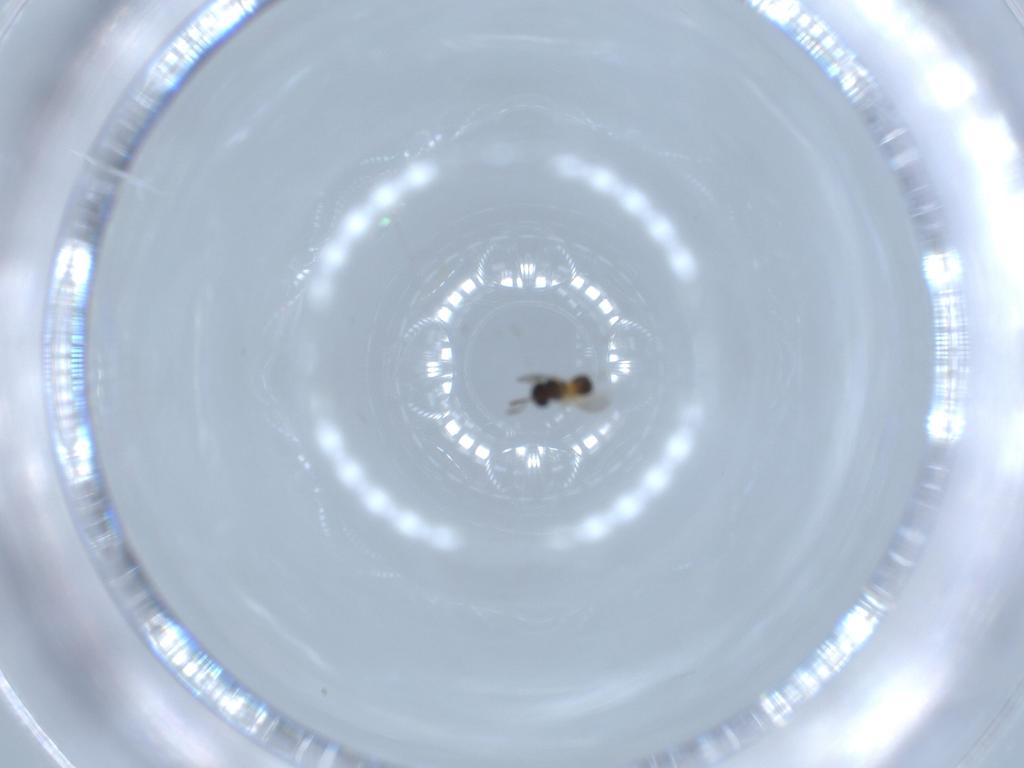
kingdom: Animalia
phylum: Arthropoda
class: Insecta
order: Hymenoptera
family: Scelionidae
